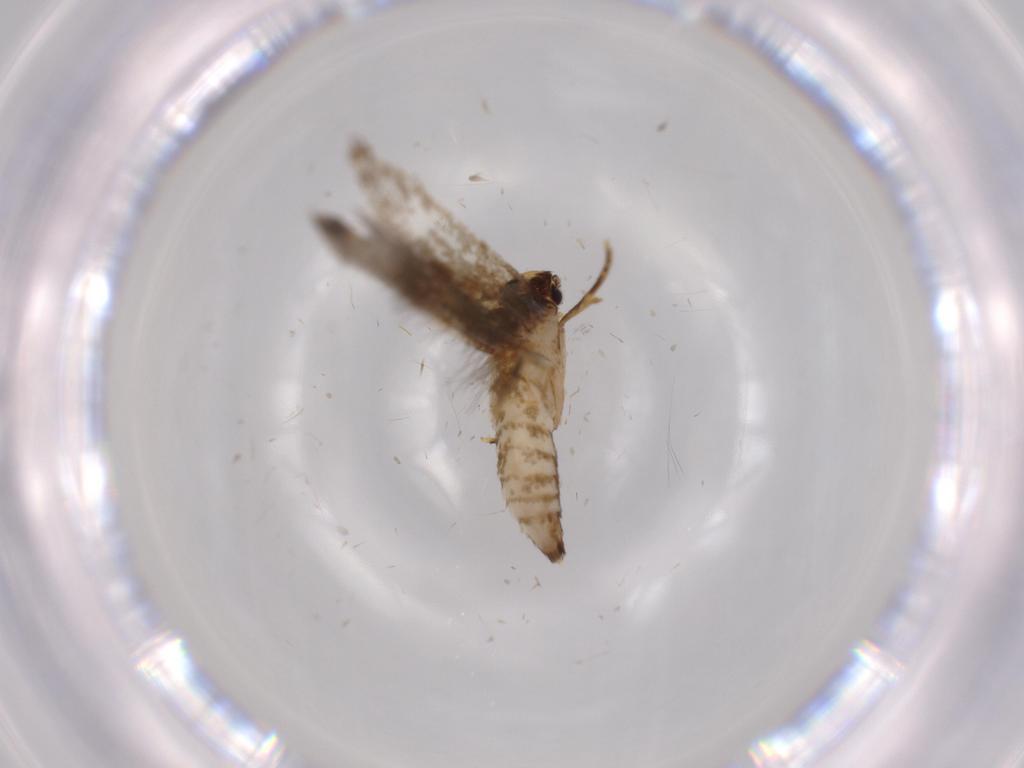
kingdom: Animalia
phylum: Arthropoda
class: Insecta
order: Lepidoptera
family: Tineidae
